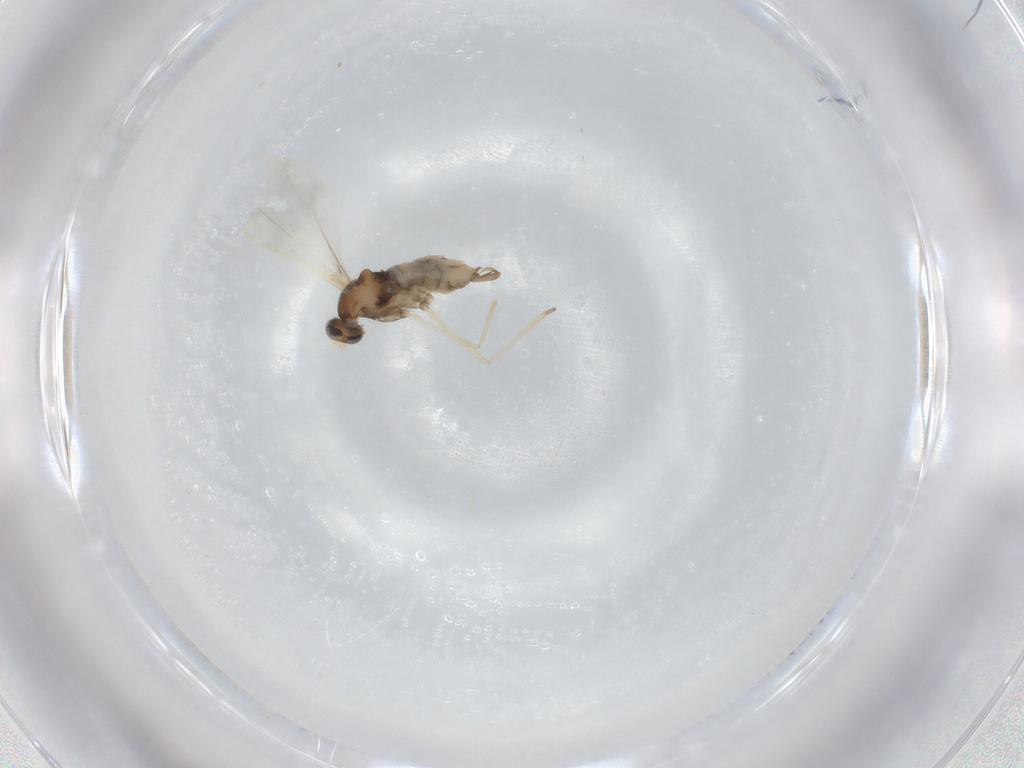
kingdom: Animalia
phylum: Arthropoda
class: Insecta
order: Diptera
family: Cecidomyiidae
